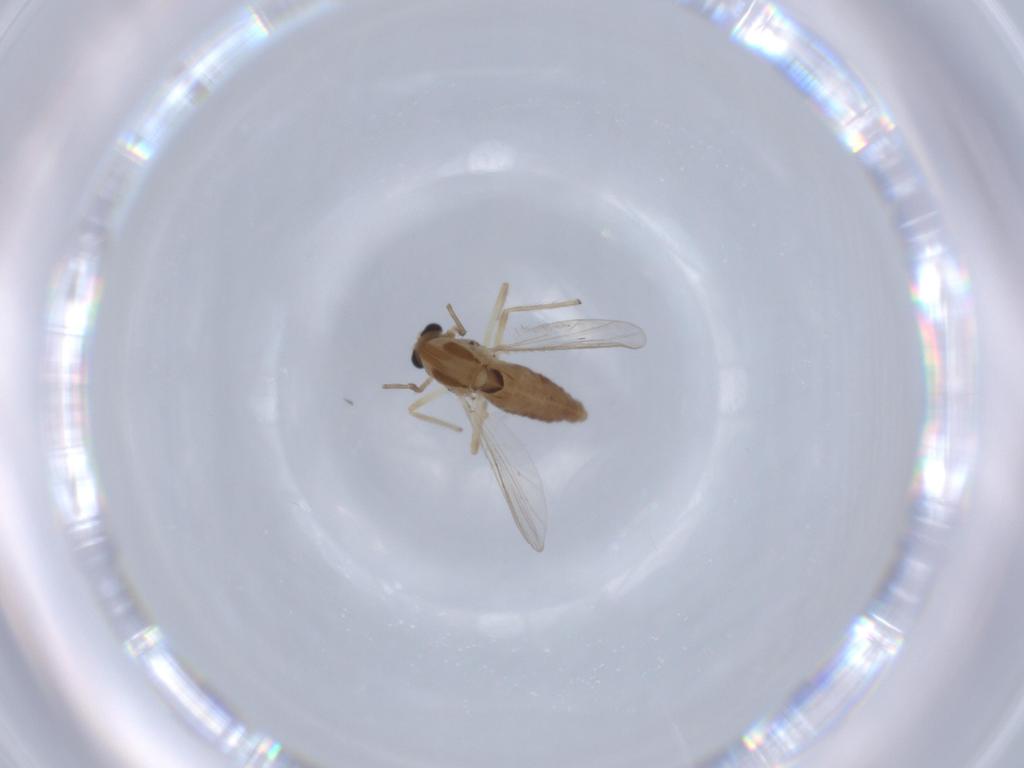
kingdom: Animalia
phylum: Arthropoda
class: Insecta
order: Diptera
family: Chironomidae
